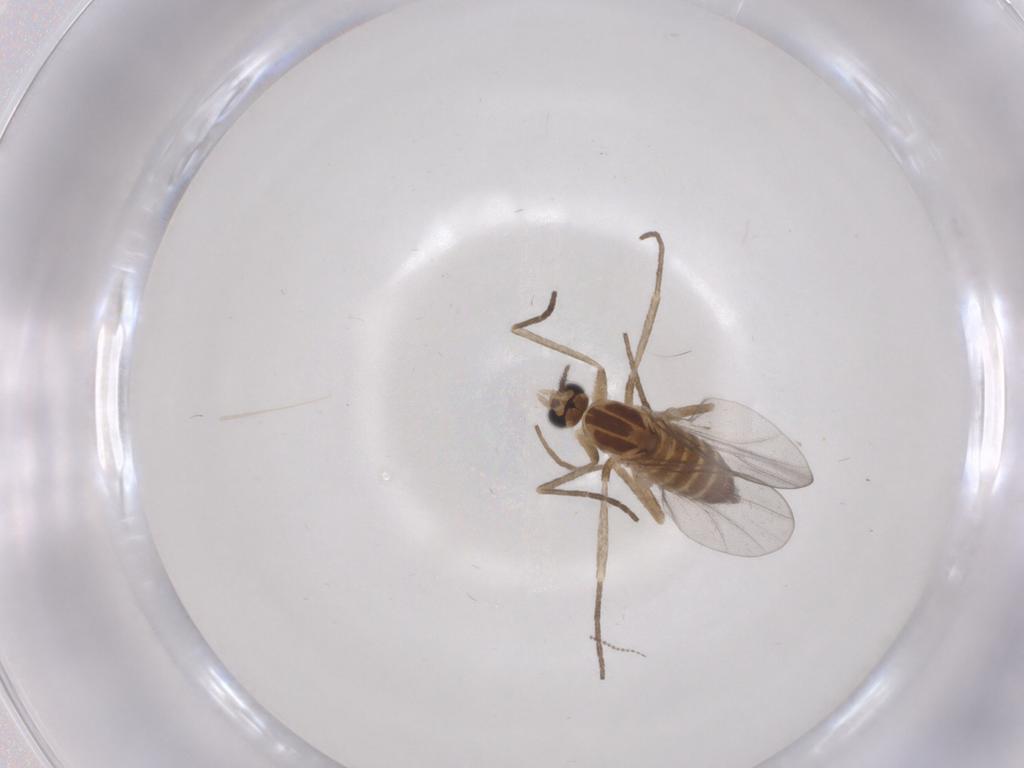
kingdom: Animalia
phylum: Arthropoda
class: Insecta
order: Diptera
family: Cecidomyiidae
